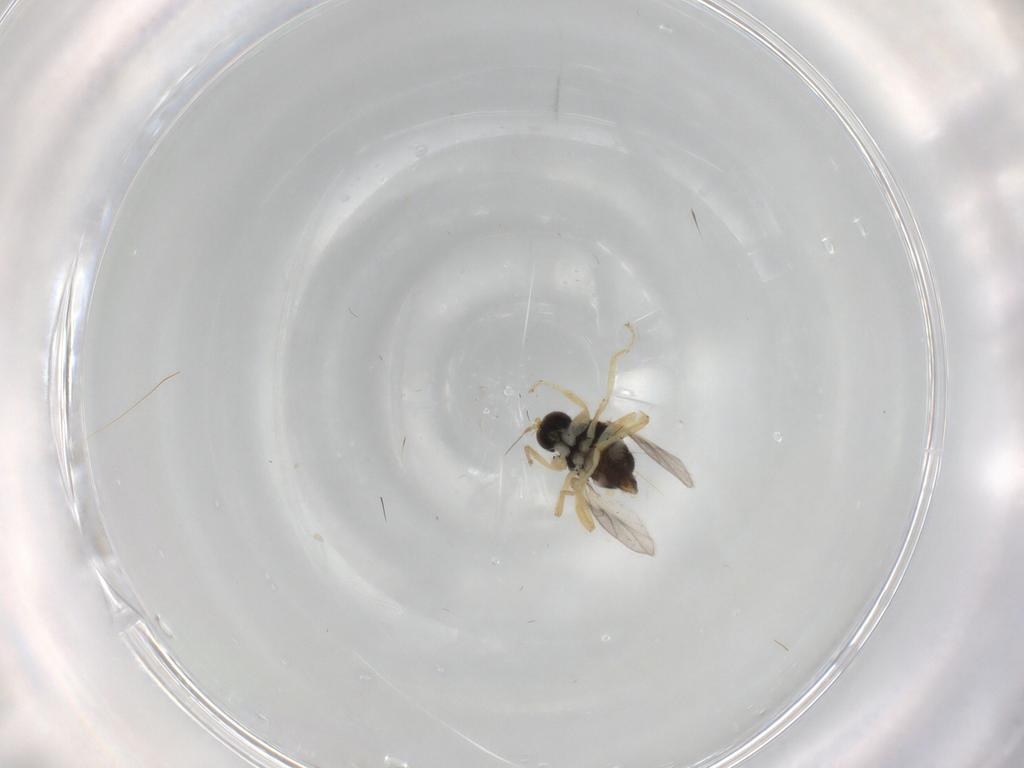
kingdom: Animalia
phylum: Arthropoda
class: Insecta
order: Diptera
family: Hybotidae
